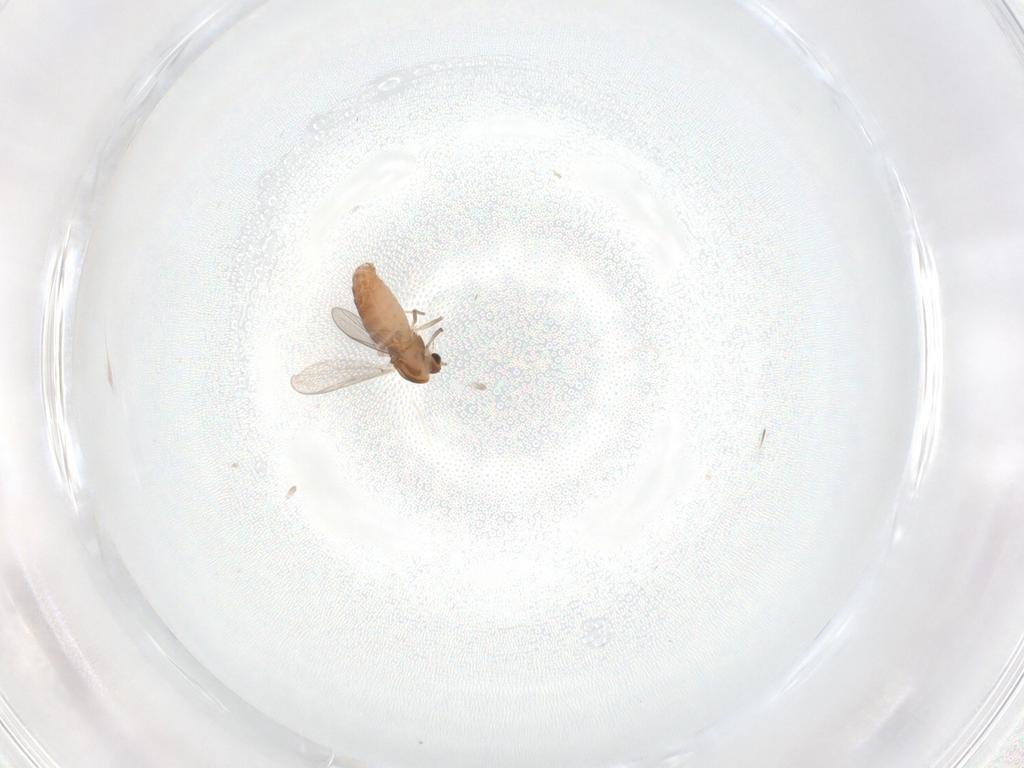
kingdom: Animalia
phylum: Arthropoda
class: Insecta
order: Diptera
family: Chironomidae
